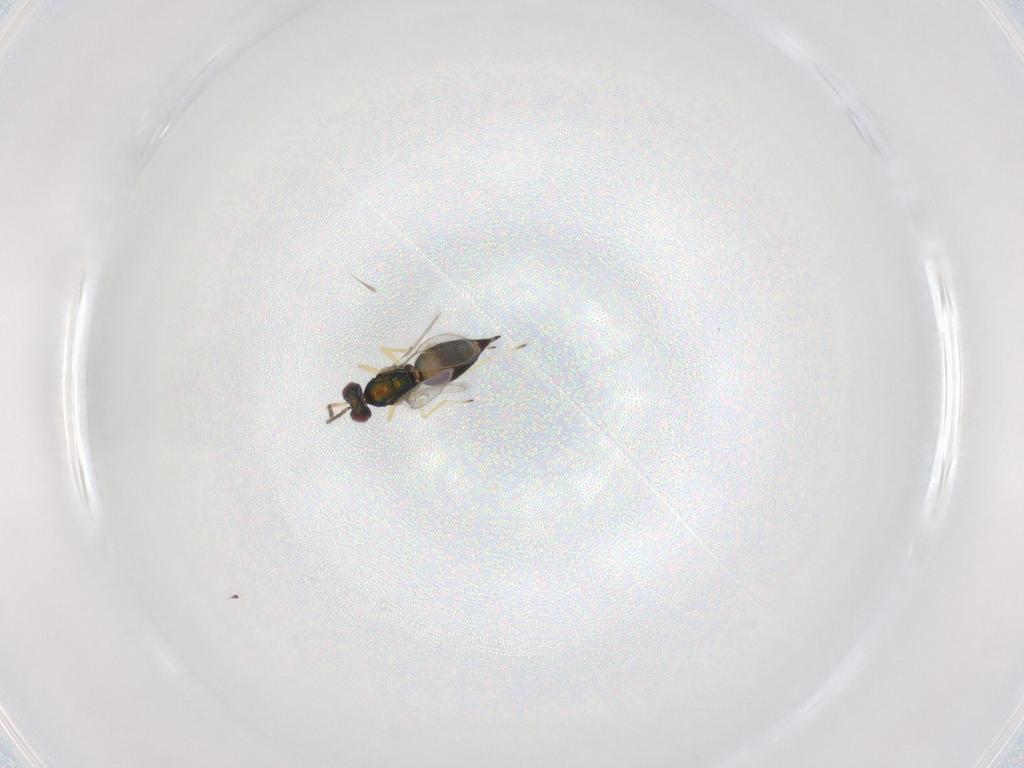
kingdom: Animalia
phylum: Arthropoda
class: Insecta
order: Hymenoptera
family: Eulophidae
